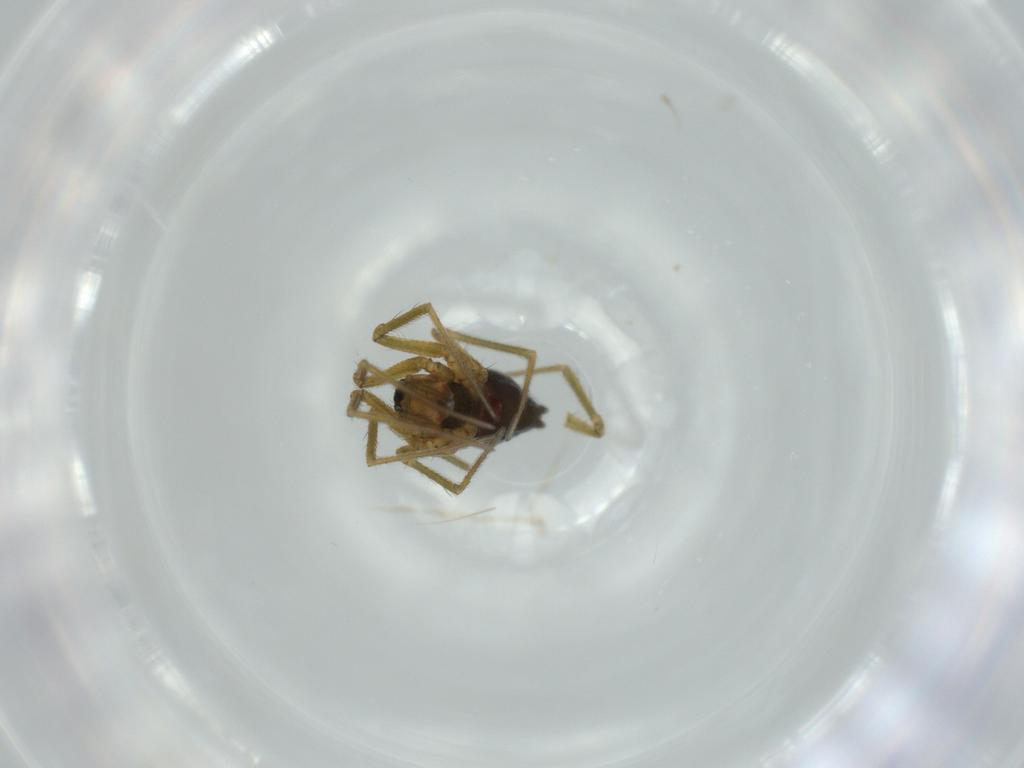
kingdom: Animalia
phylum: Arthropoda
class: Arachnida
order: Araneae
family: Linyphiidae
